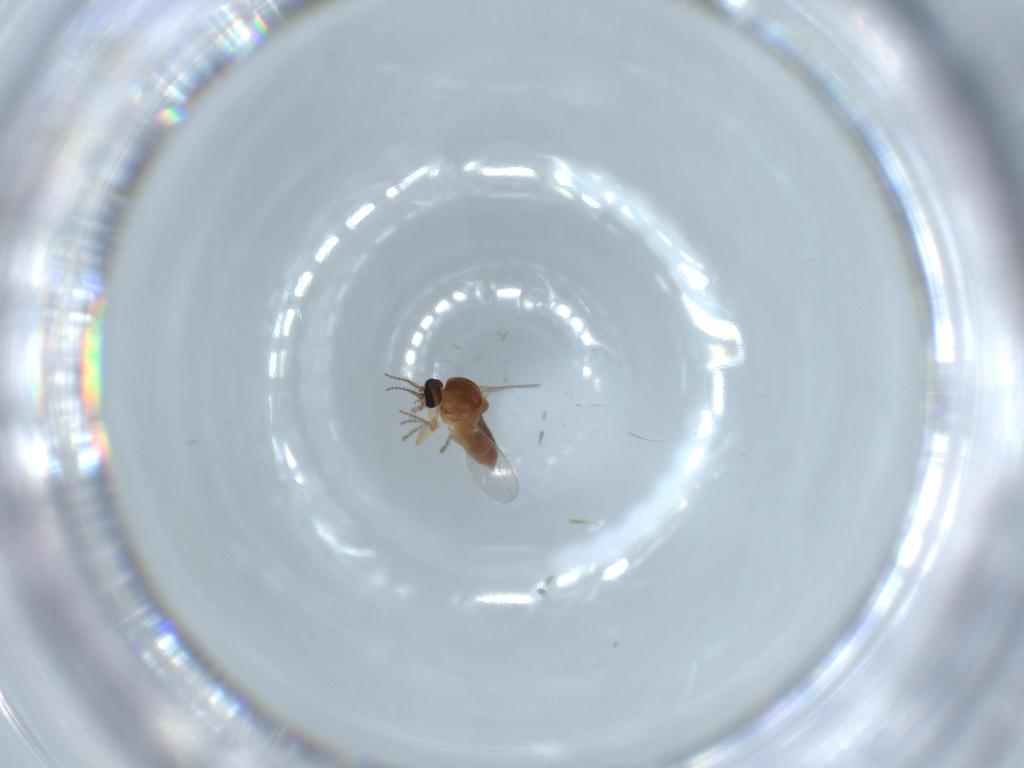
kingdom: Animalia
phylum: Arthropoda
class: Insecta
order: Diptera
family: Ceratopogonidae
